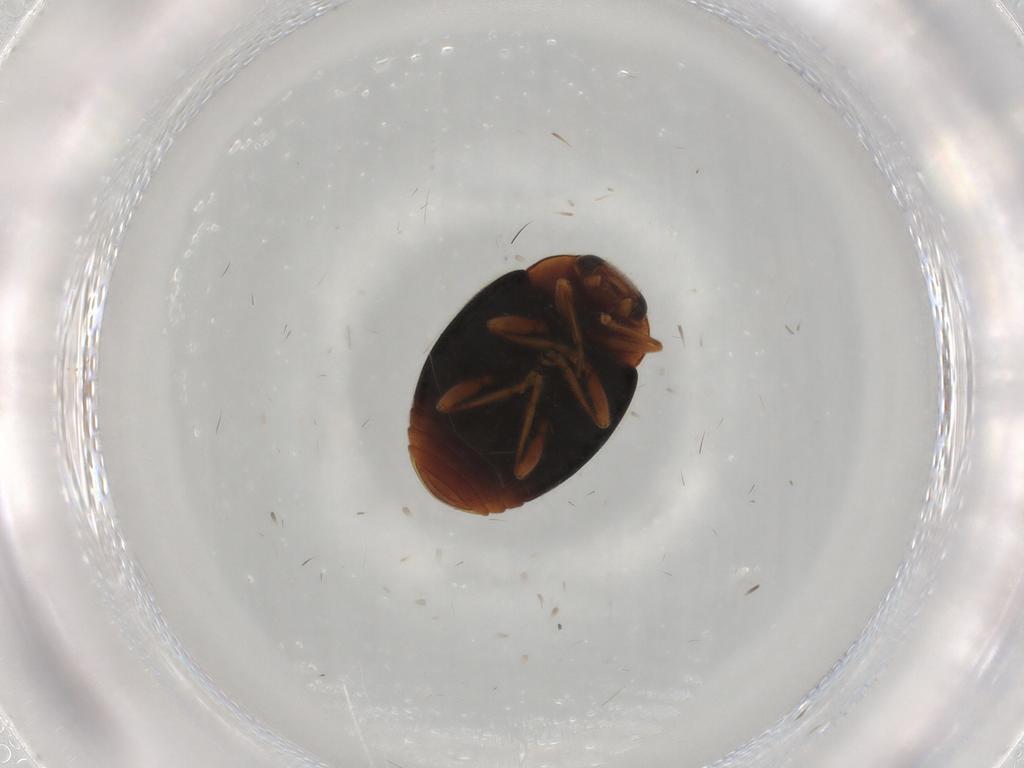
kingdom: Animalia
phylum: Arthropoda
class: Insecta
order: Coleoptera
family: Coccinellidae
